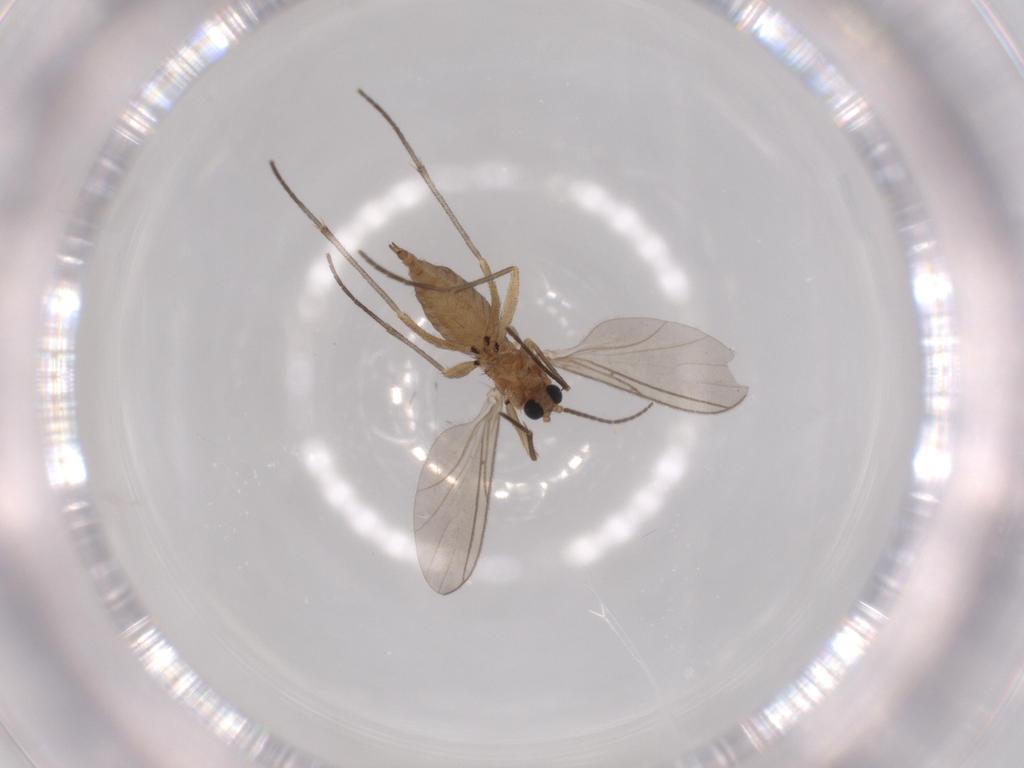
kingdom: Animalia
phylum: Arthropoda
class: Insecta
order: Diptera
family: Sciaridae
